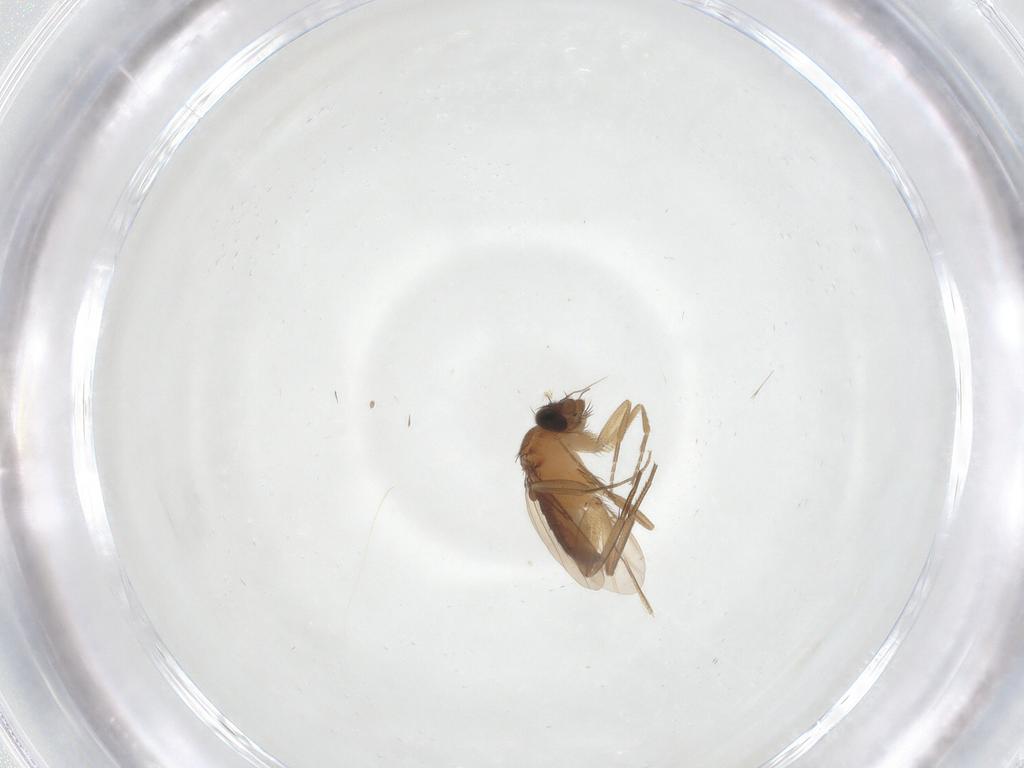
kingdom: Animalia
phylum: Arthropoda
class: Insecta
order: Diptera
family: Phoridae
